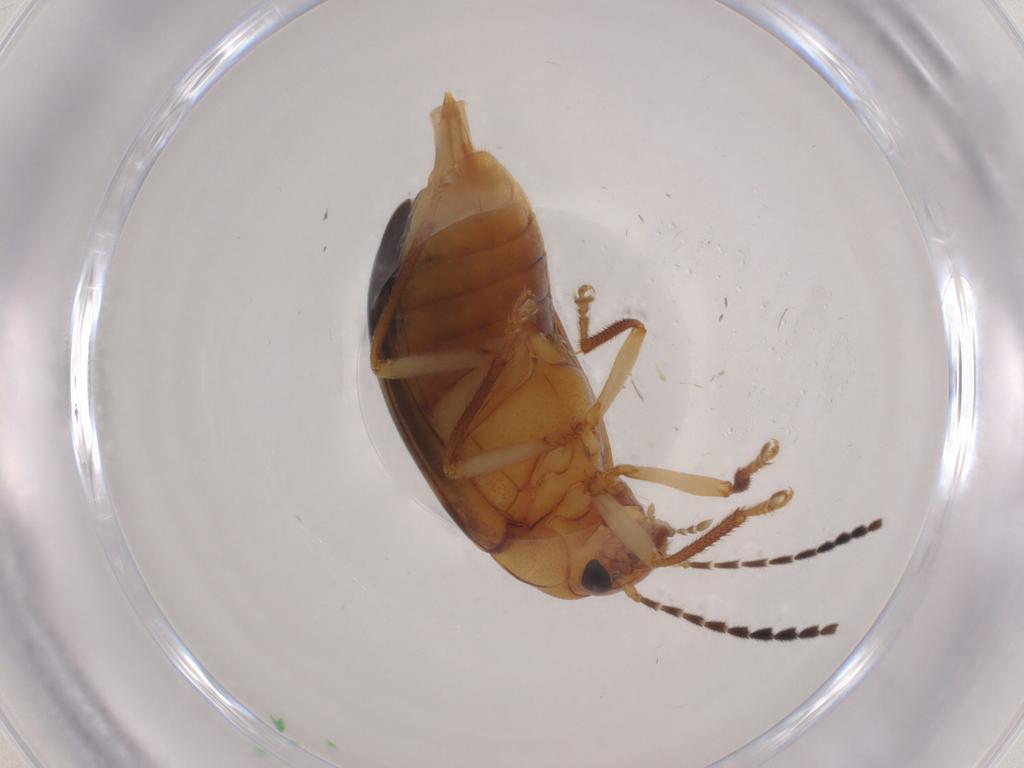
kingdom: Animalia
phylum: Arthropoda
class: Insecta
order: Coleoptera
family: Ptilodactylidae
